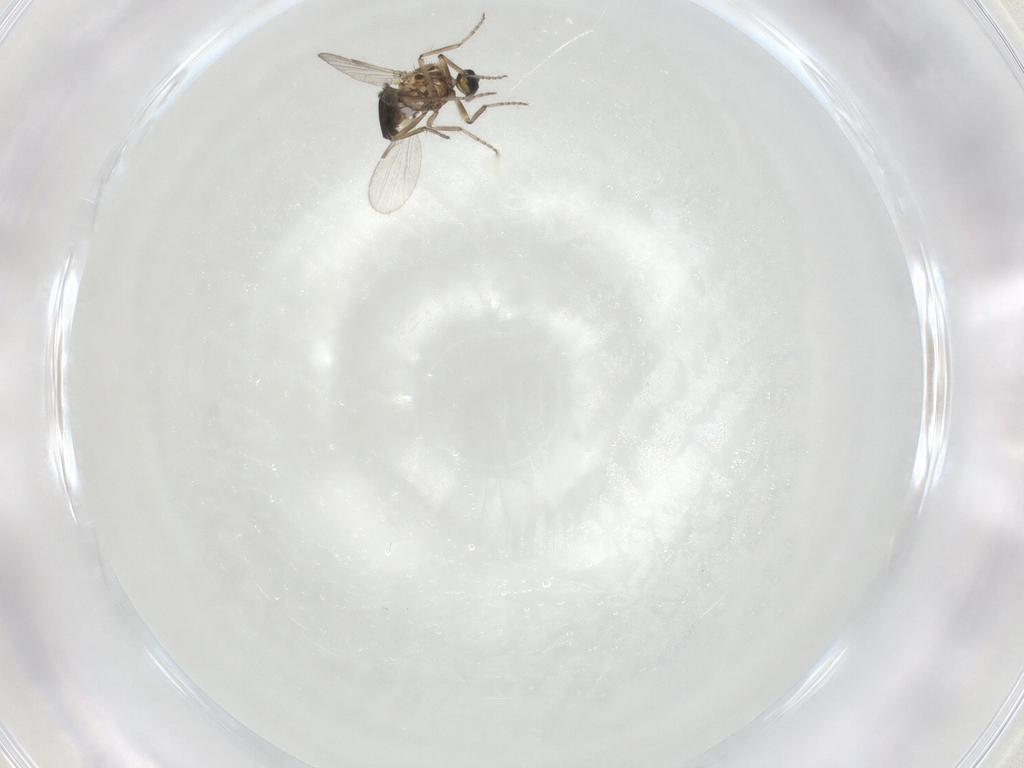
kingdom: Animalia
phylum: Arthropoda
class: Insecta
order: Diptera
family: Ceratopogonidae
